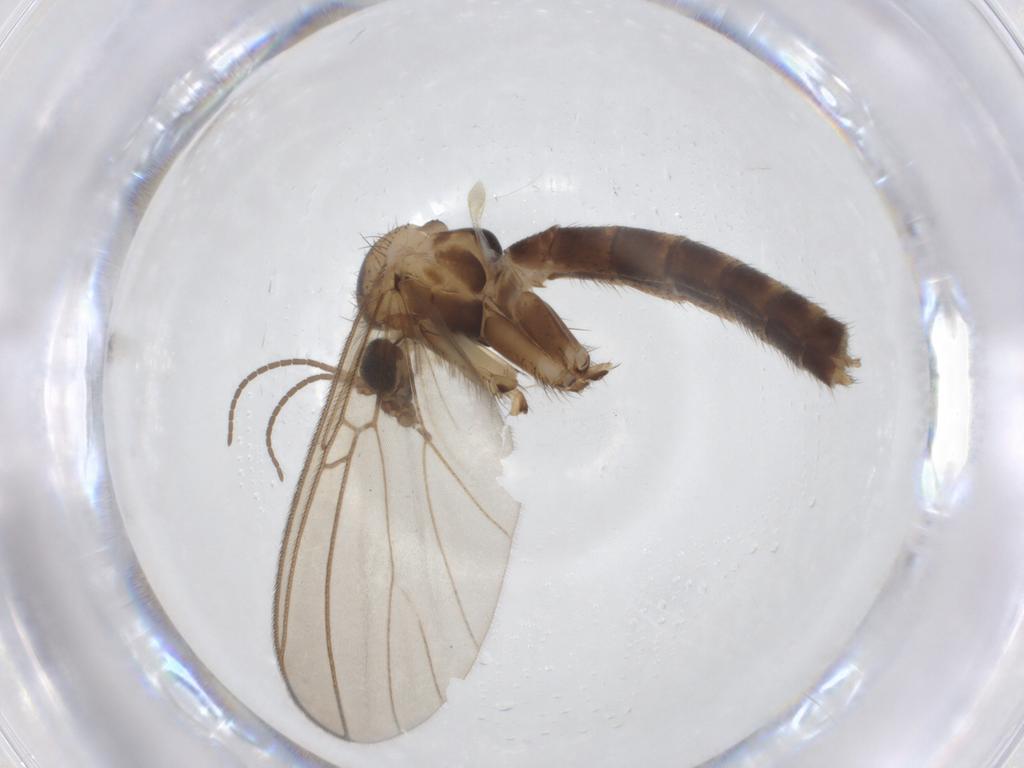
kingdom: Animalia
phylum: Arthropoda
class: Insecta
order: Diptera
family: Mycetophilidae
